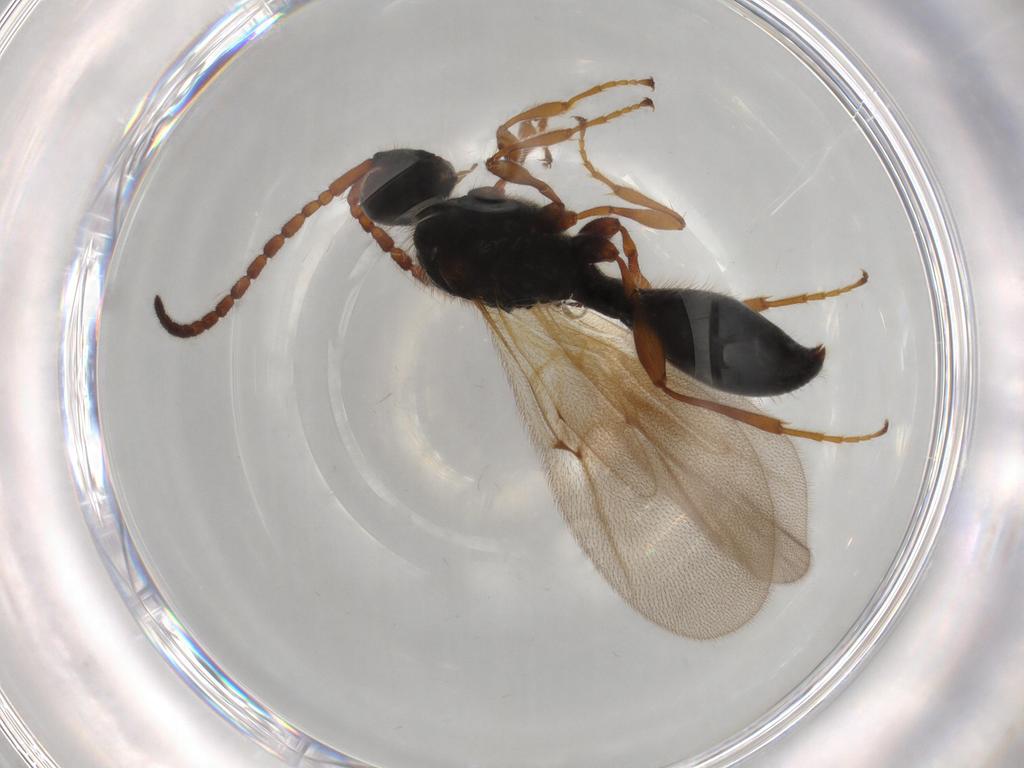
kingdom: Animalia
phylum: Arthropoda
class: Insecta
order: Hymenoptera
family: Diapriidae
